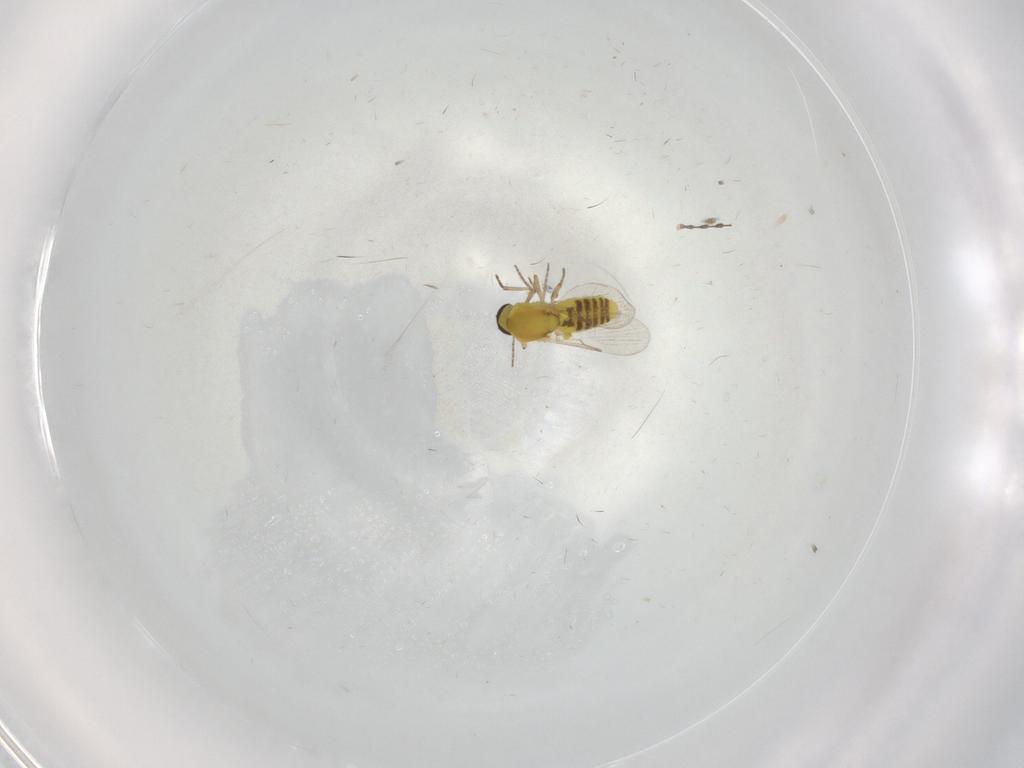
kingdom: Animalia
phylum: Arthropoda
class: Insecta
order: Diptera
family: Ceratopogonidae
